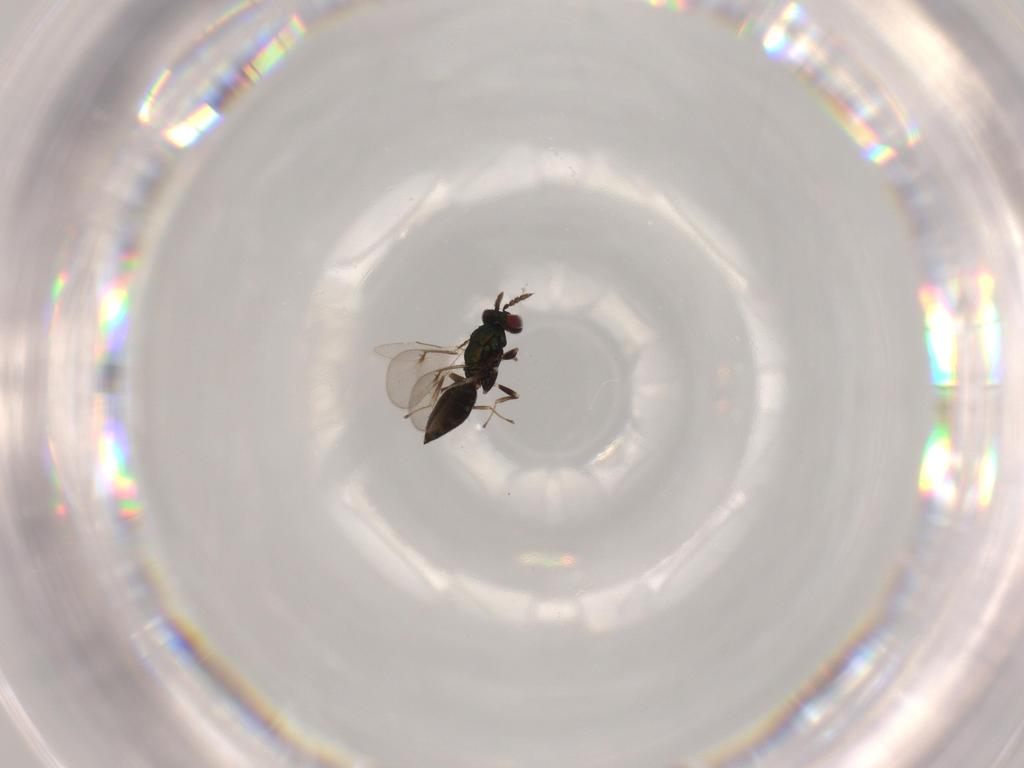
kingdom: Animalia
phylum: Arthropoda
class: Insecta
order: Hymenoptera
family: Eulophidae
